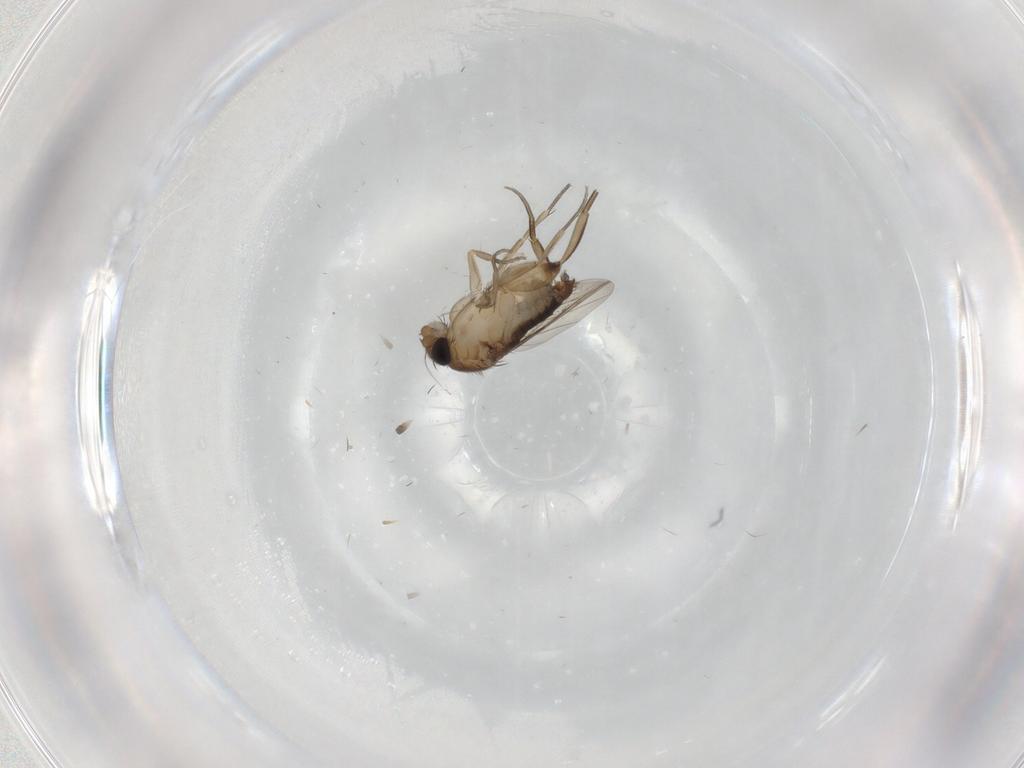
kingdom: Animalia
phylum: Arthropoda
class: Insecta
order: Diptera
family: Phoridae
